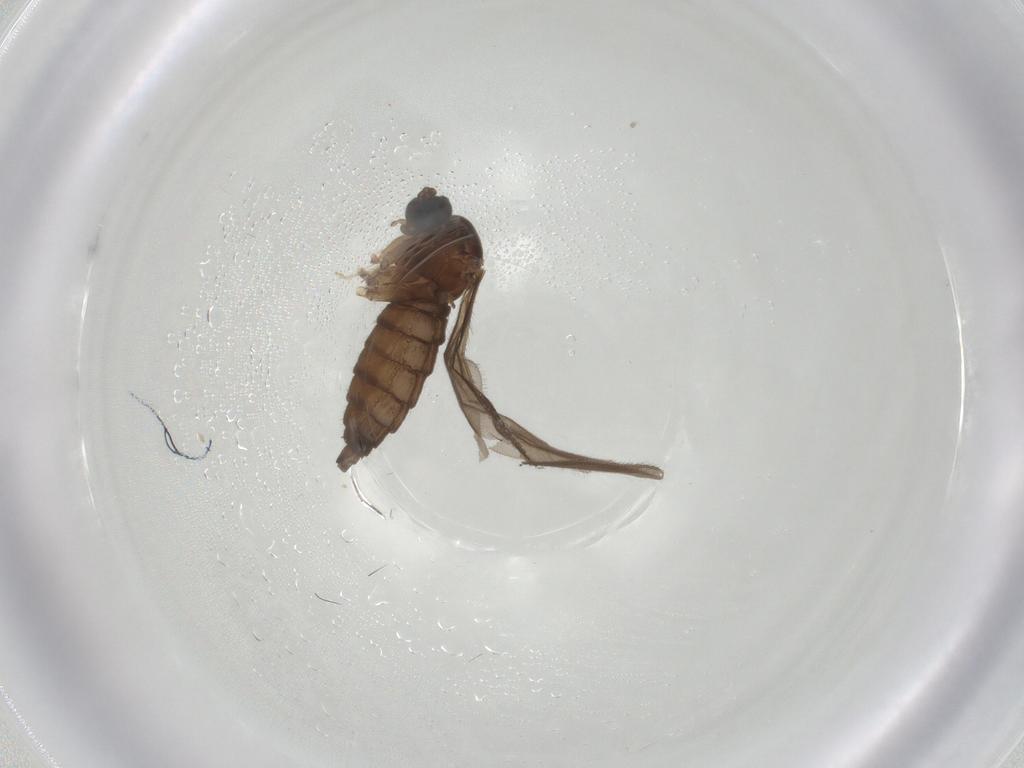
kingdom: Animalia
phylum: Arthropoda
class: Insecta
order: Diptera
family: Sciaridae
